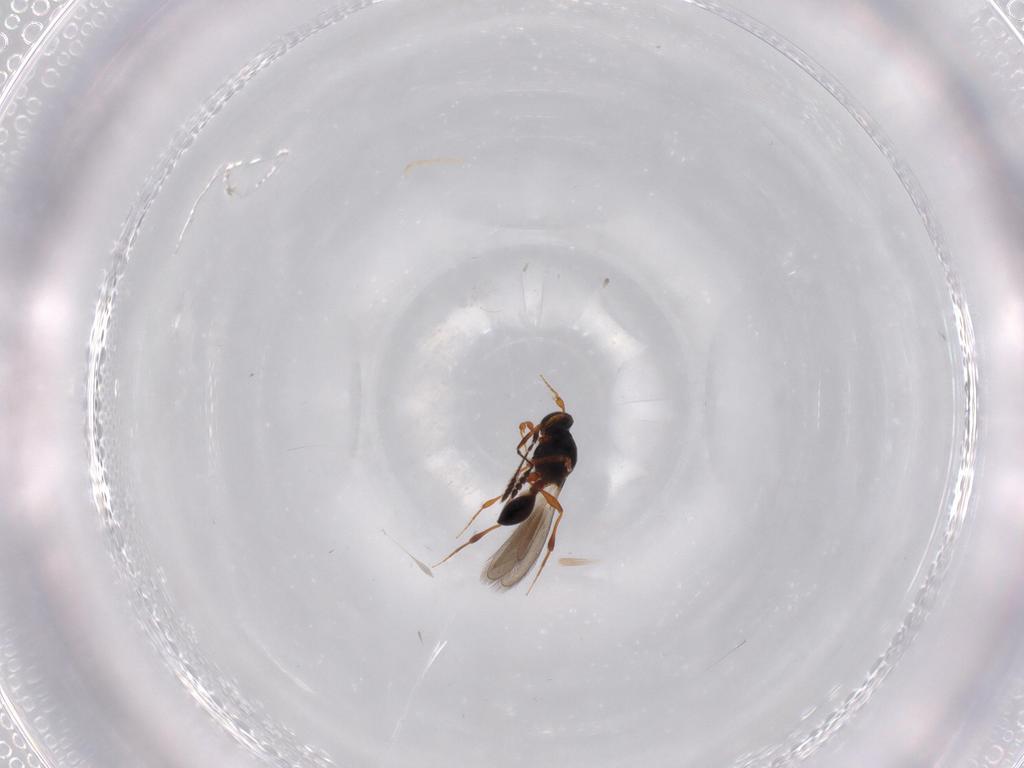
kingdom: Animalia
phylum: Arthropoda
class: Insecta
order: Hymenoptera
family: Platygastridae
